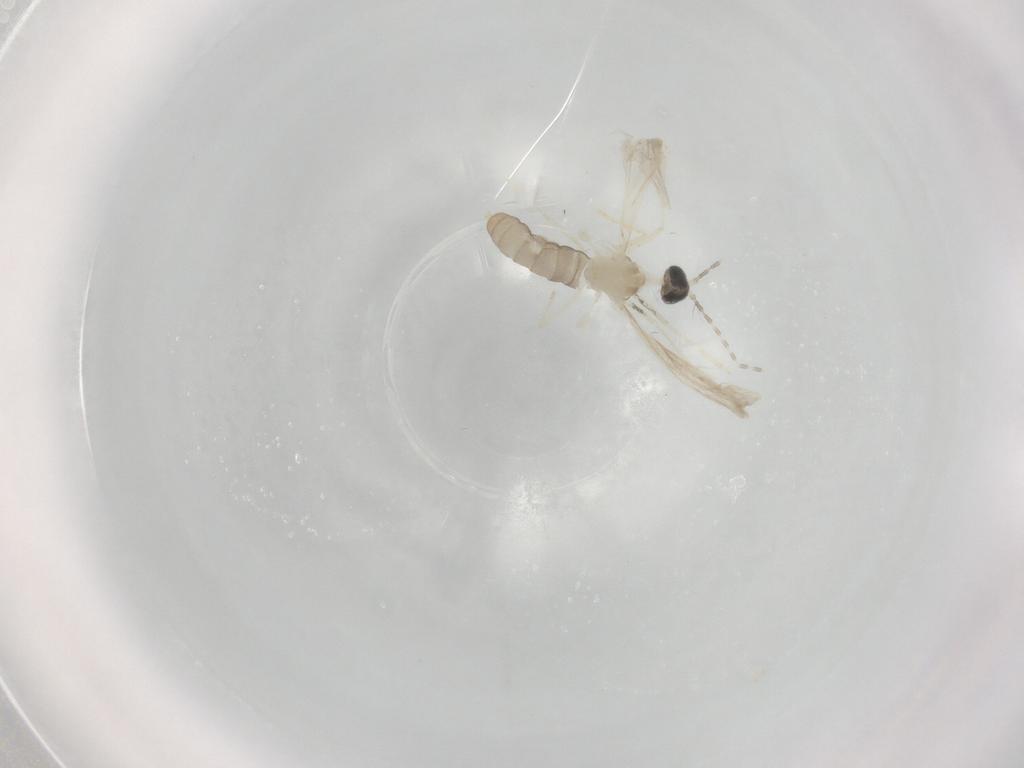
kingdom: Animalia
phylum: Arthropoda
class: Insecta
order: Diptera
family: Cecidomyiidae
